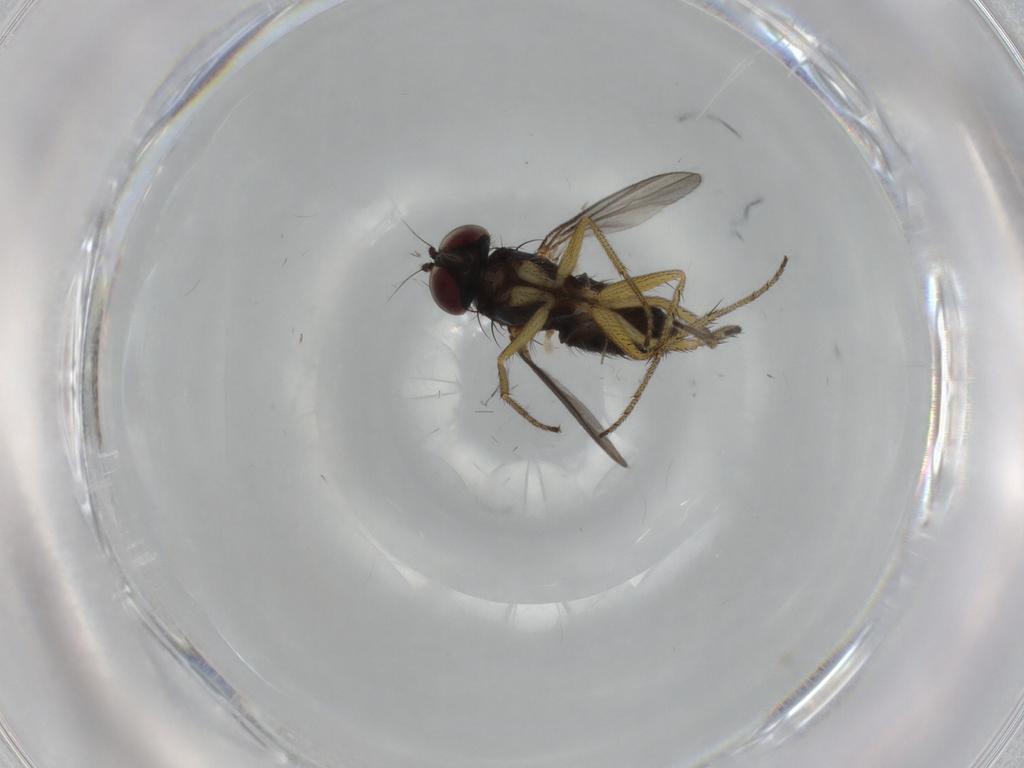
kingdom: Animalia
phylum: Arthropoda
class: Insecta
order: Diptera
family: Dolichopodidae
